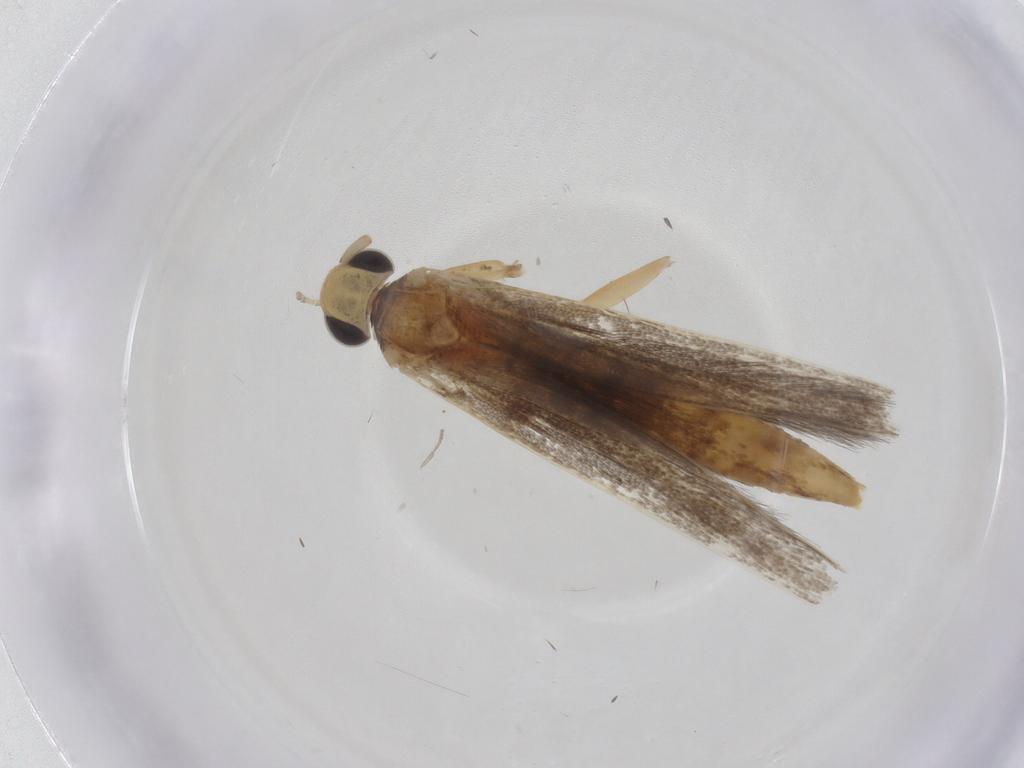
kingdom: Animalia
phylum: Arthropoda
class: Insecta
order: Lepidoptera
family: Gracillariidae
